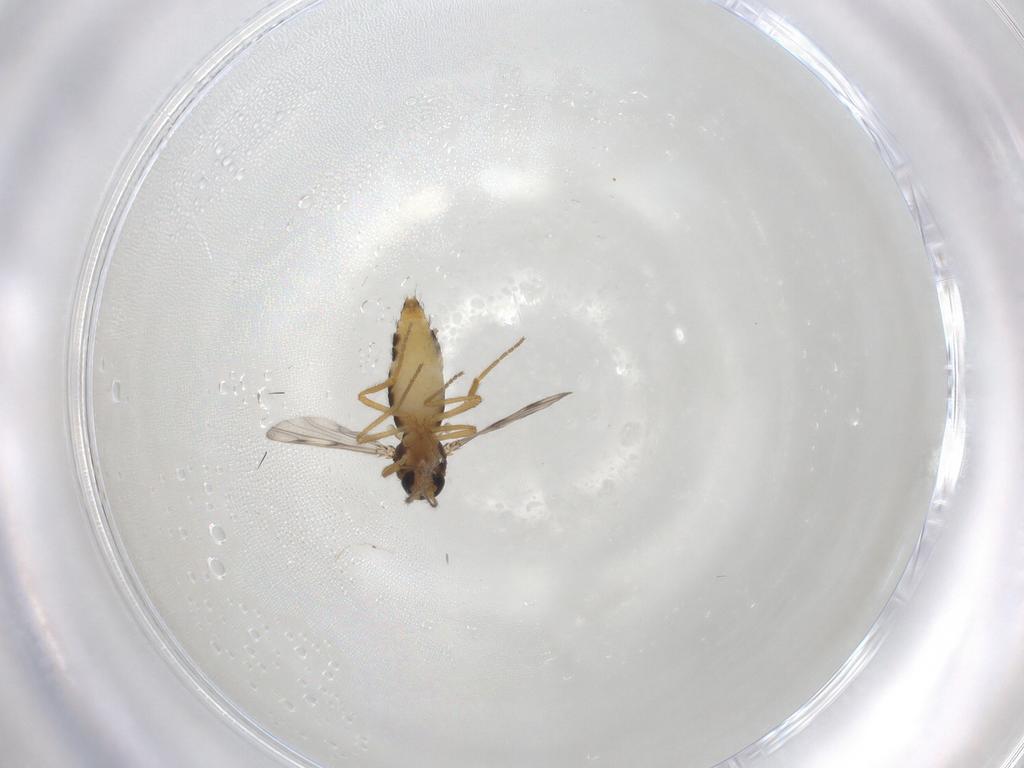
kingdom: Animalia
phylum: Arthropoda
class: Insecta
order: Diptera
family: Ceratopogonidae
